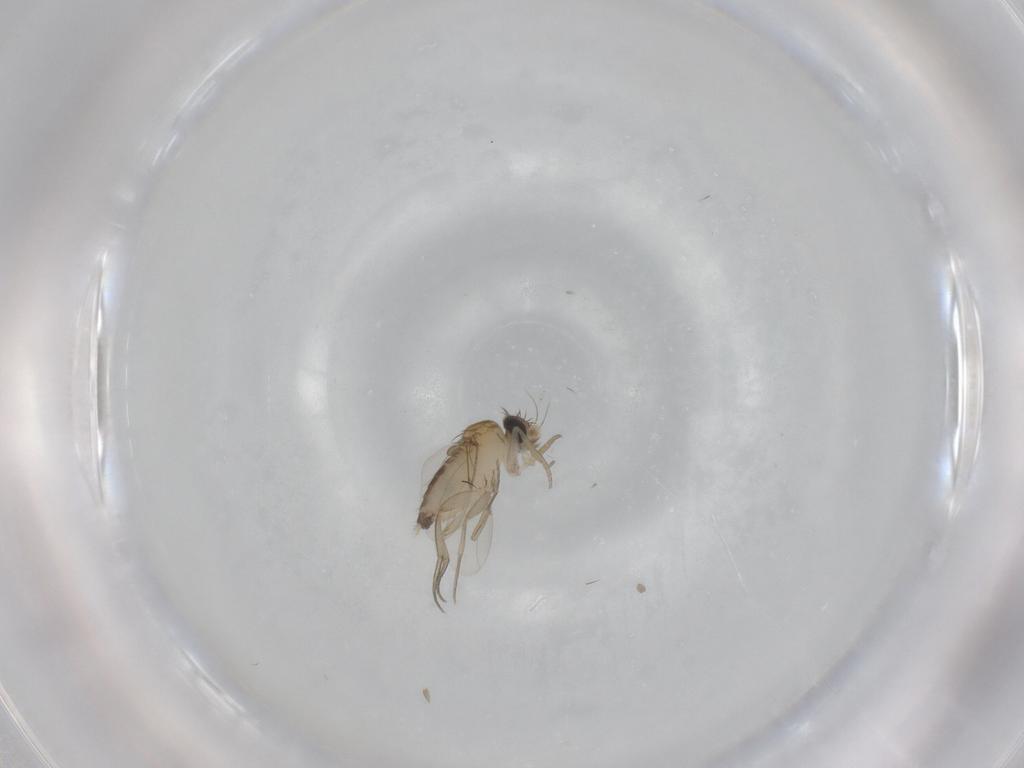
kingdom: Animalia
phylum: Arthropoda
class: Insecta
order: Diptera
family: Phoridae
